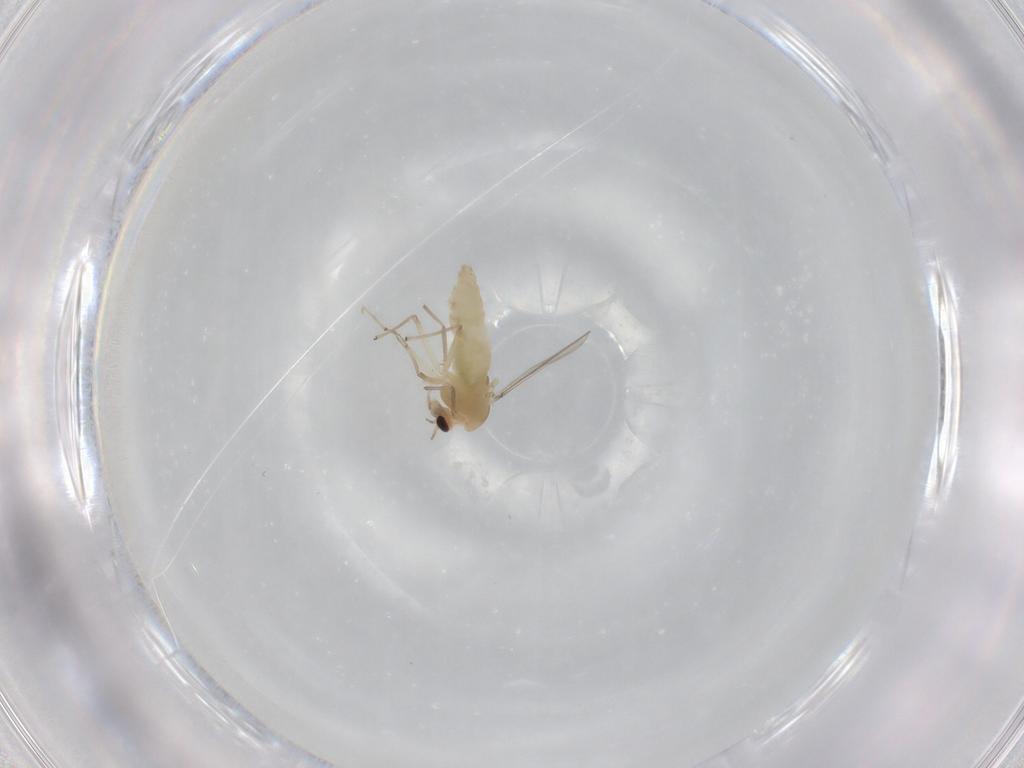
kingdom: Animalia
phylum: Arthropoda
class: Insecta
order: Diptera
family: Chironomidae
